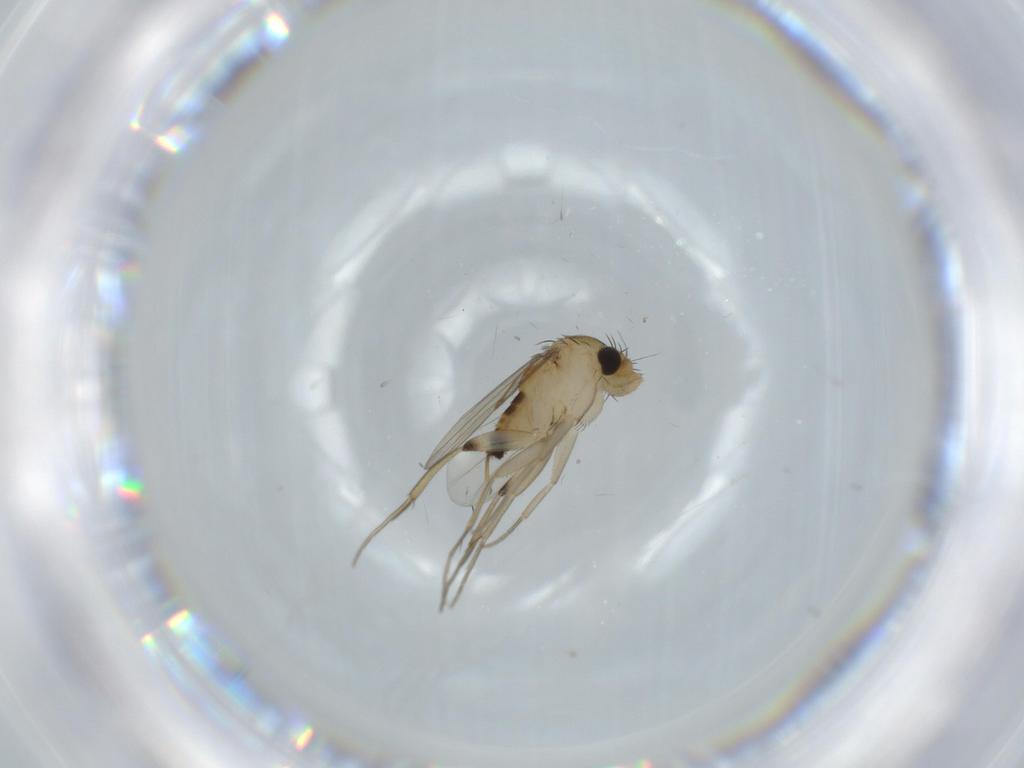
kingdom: Animalia
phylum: Arthropoda
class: Insecta
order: Diptera
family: Phoridae
